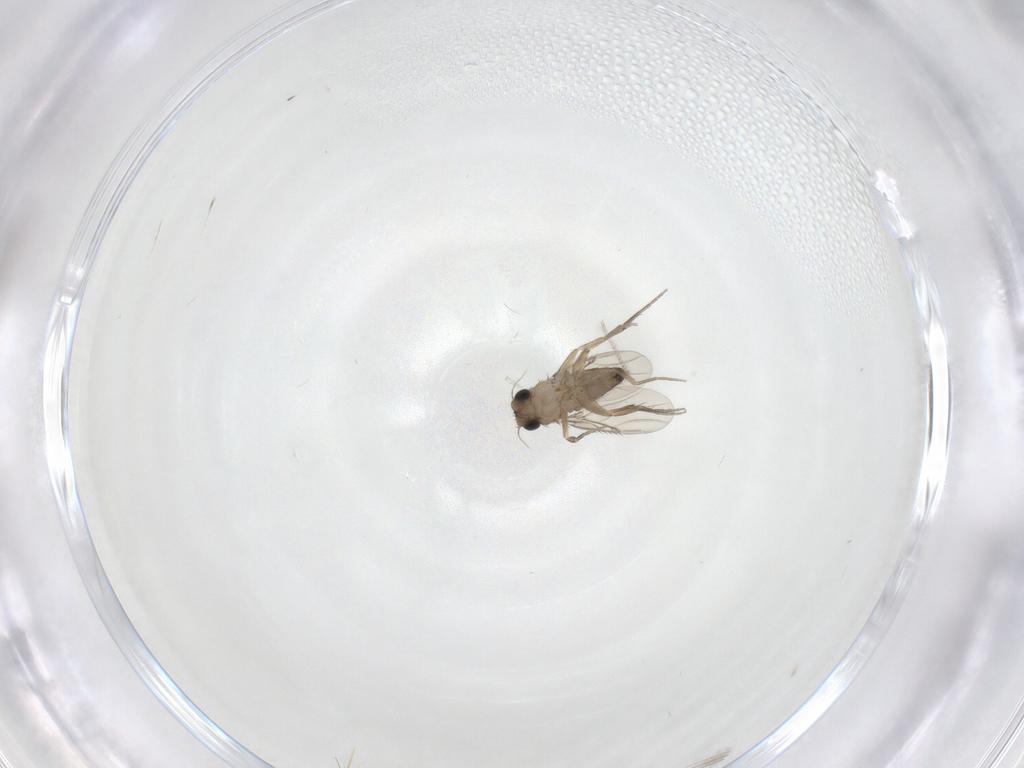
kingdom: Animalia
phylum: Arthropoda
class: Insecta
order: Diptera
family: Phoridae
